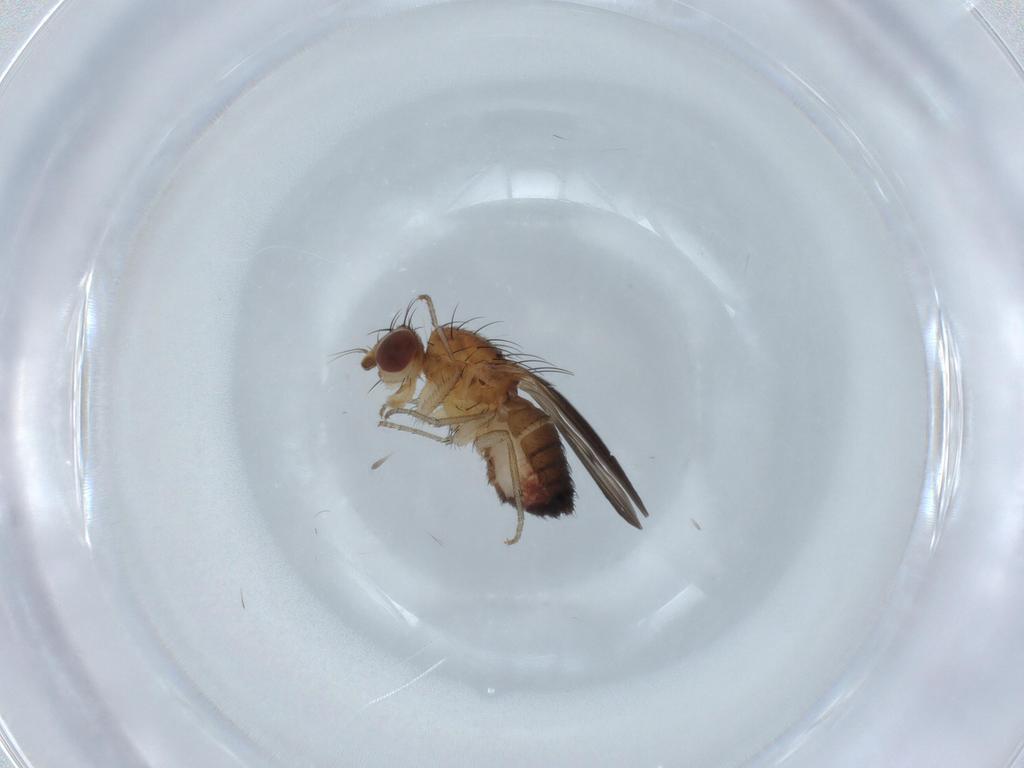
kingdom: Animalia
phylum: Arthropoda
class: Insecta
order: Diptera
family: Heleomyzidae
